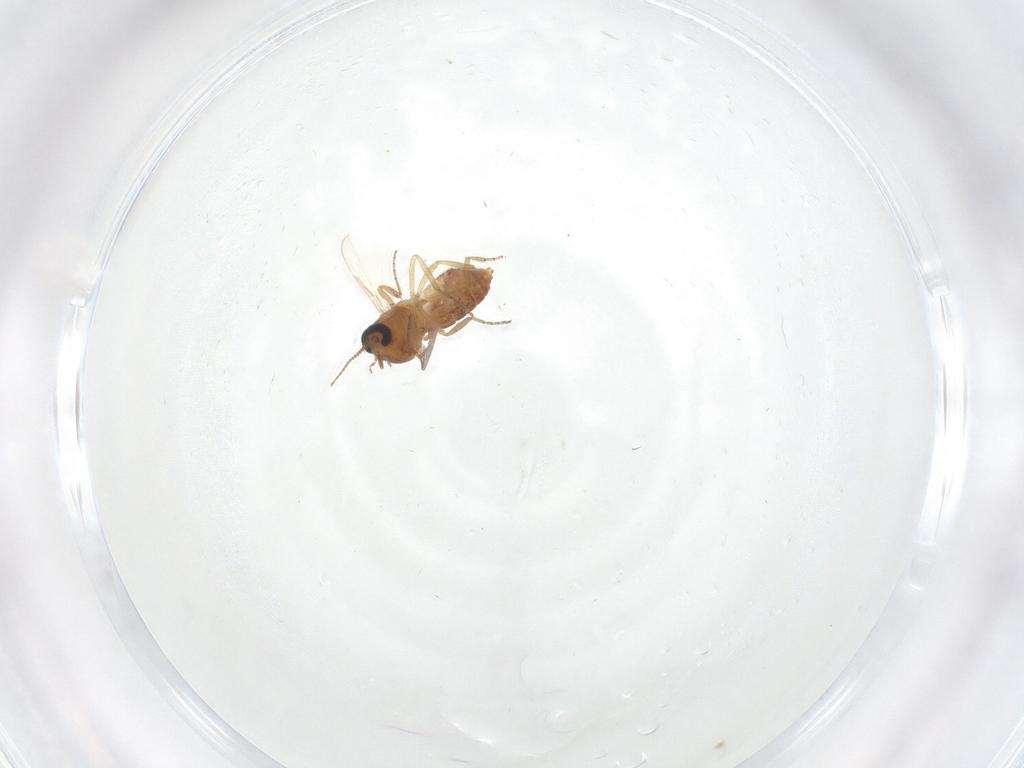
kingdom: Animalia
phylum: Arthropoda
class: Insecta
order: Diptera
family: Ceratopogonidae
